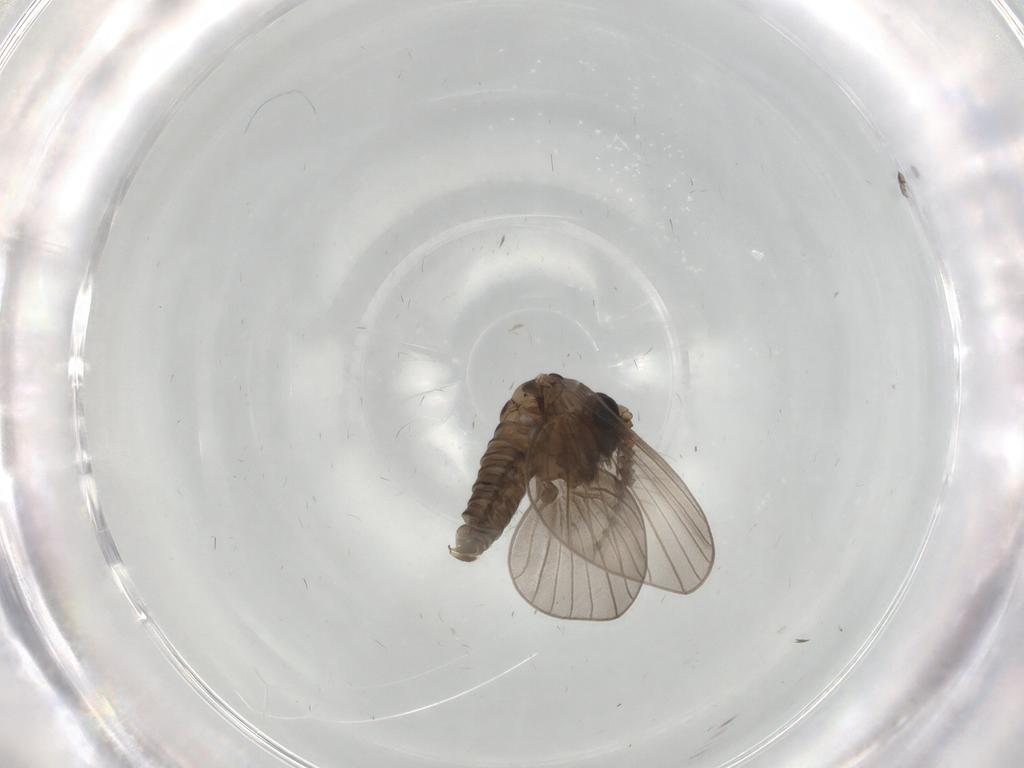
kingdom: Animalia
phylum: Arthropoda
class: Insecta
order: Diptera
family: Psychodidae
